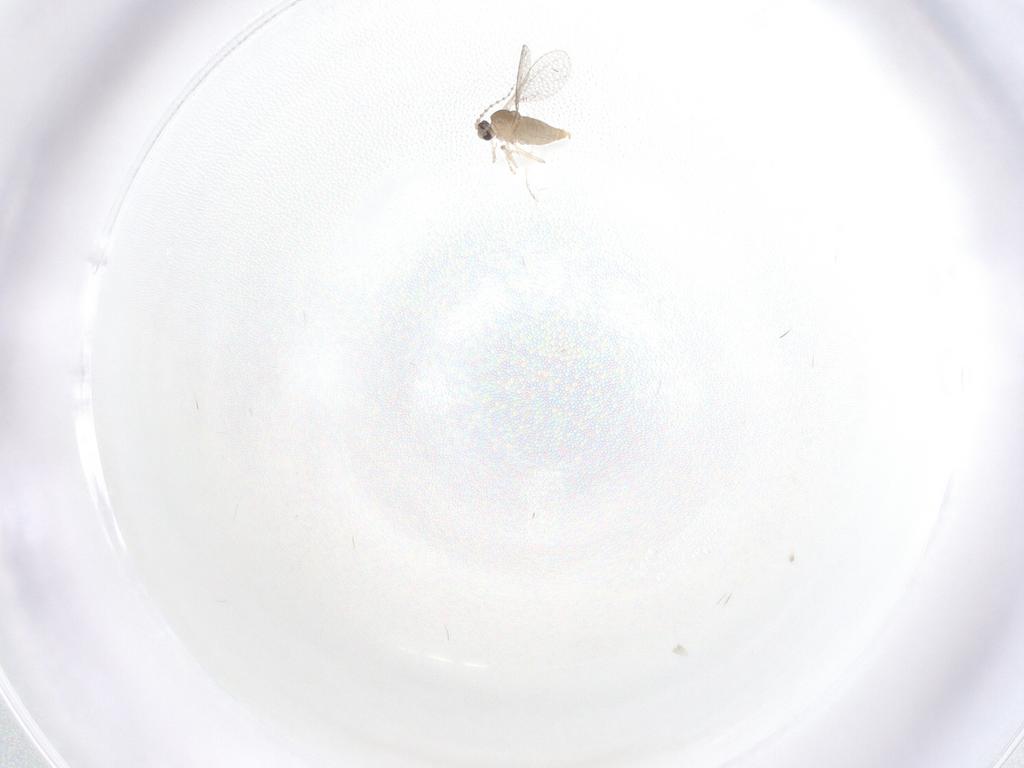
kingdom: Animalia
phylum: Arthropoda
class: Insecta
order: Diptera
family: Cecidomyiidae
